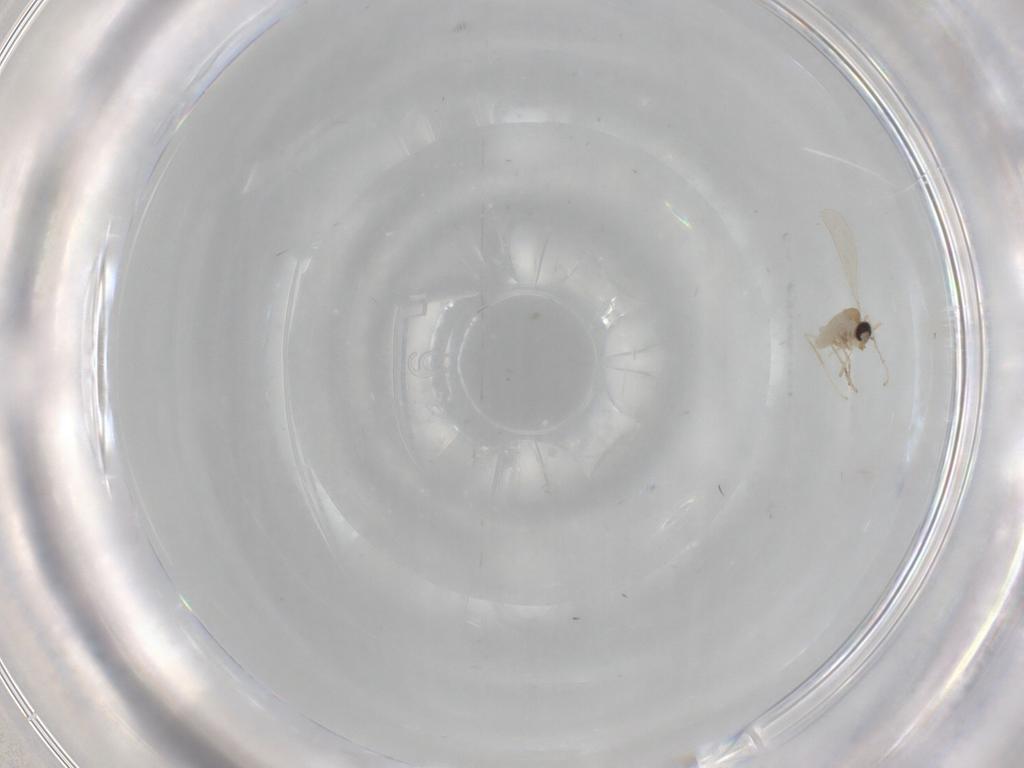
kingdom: Animalia
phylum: Arthropoda
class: Insecta
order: Diptera
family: Cecidomyiidae
